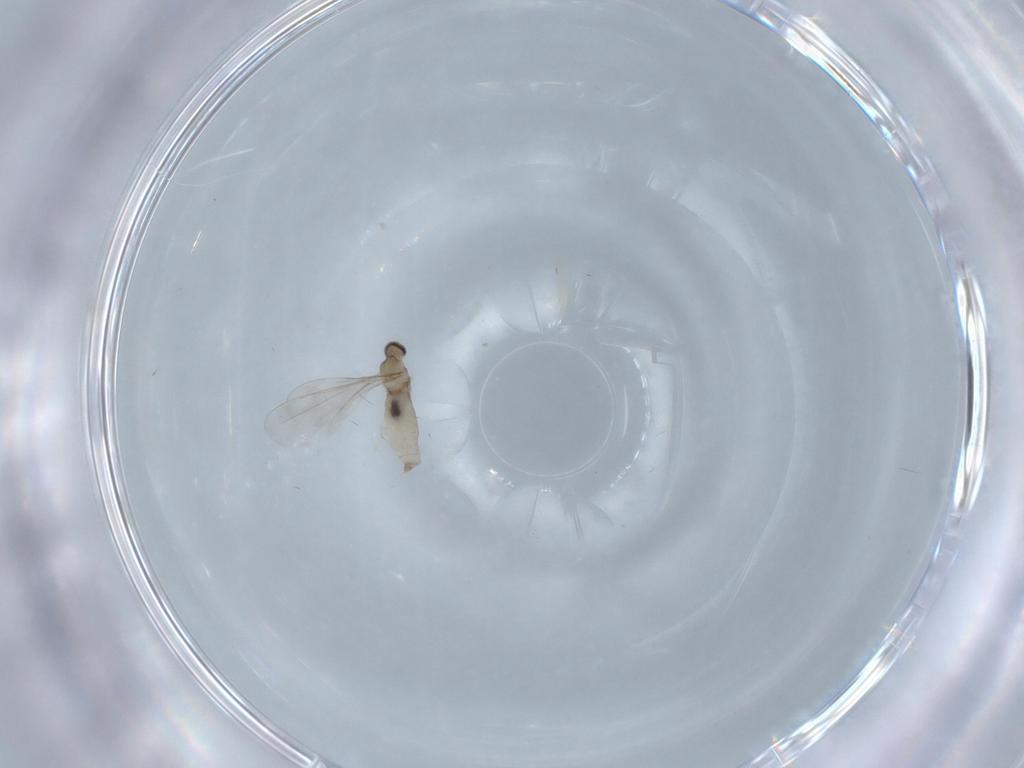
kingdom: Animalia
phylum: Arthropoda
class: Insecta
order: Diptera
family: Cecidomyiidae
